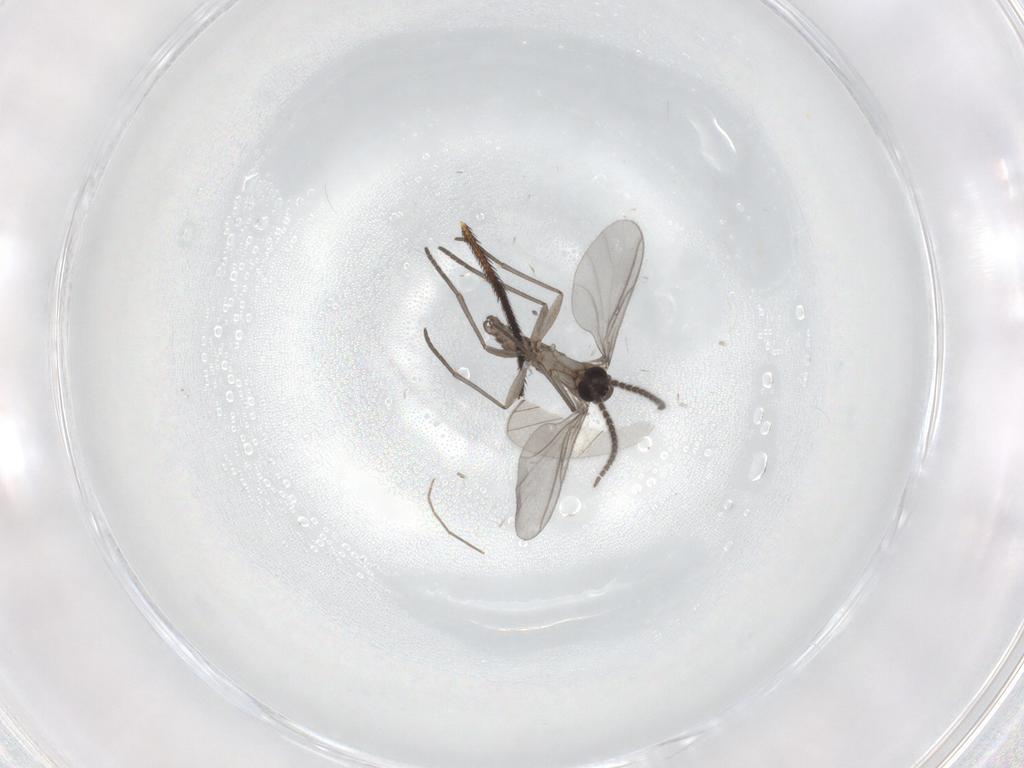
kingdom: Animalia
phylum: Arthropoda
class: Insecta
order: Diptera
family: Dolichopodidae
